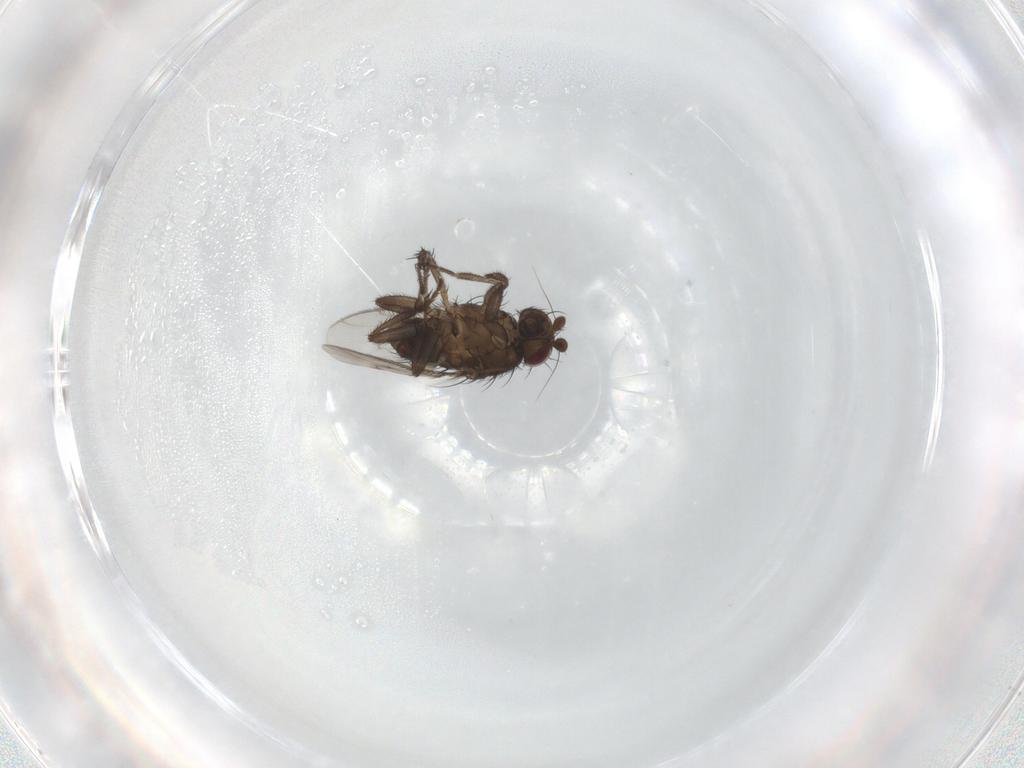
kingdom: Animalia
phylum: Arthropoda
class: Insecta
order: Diptera
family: Sphaeroceridae
